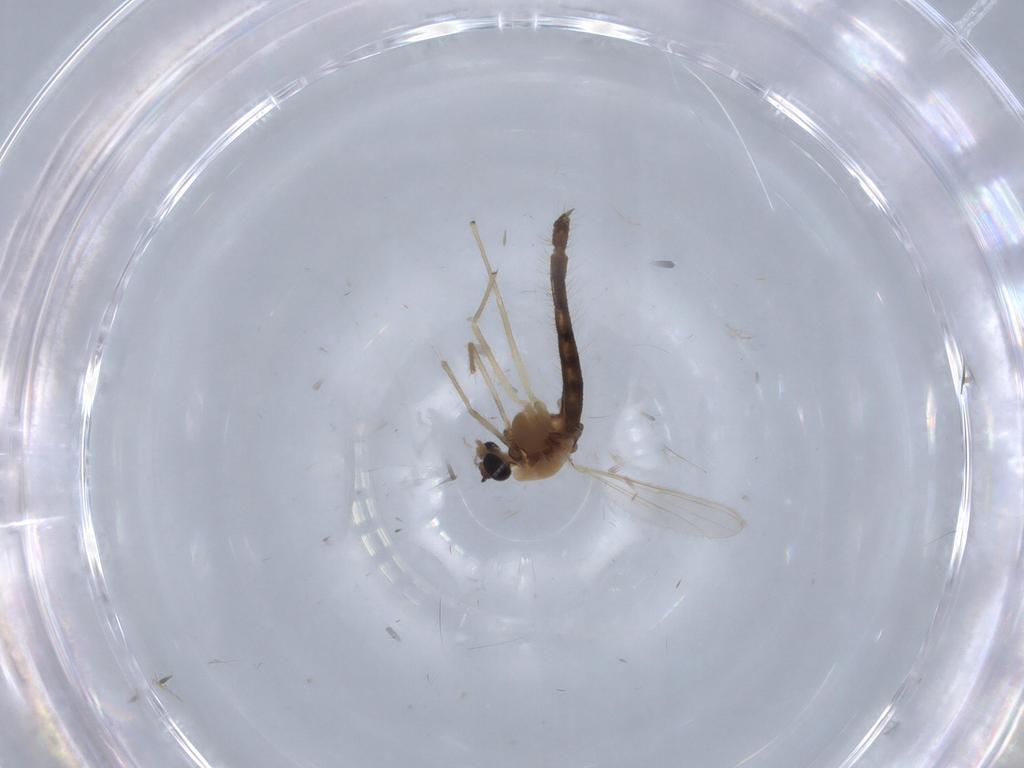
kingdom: Animalia
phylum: Arthropoda
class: Insecta
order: Diptera
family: Chironomidae
